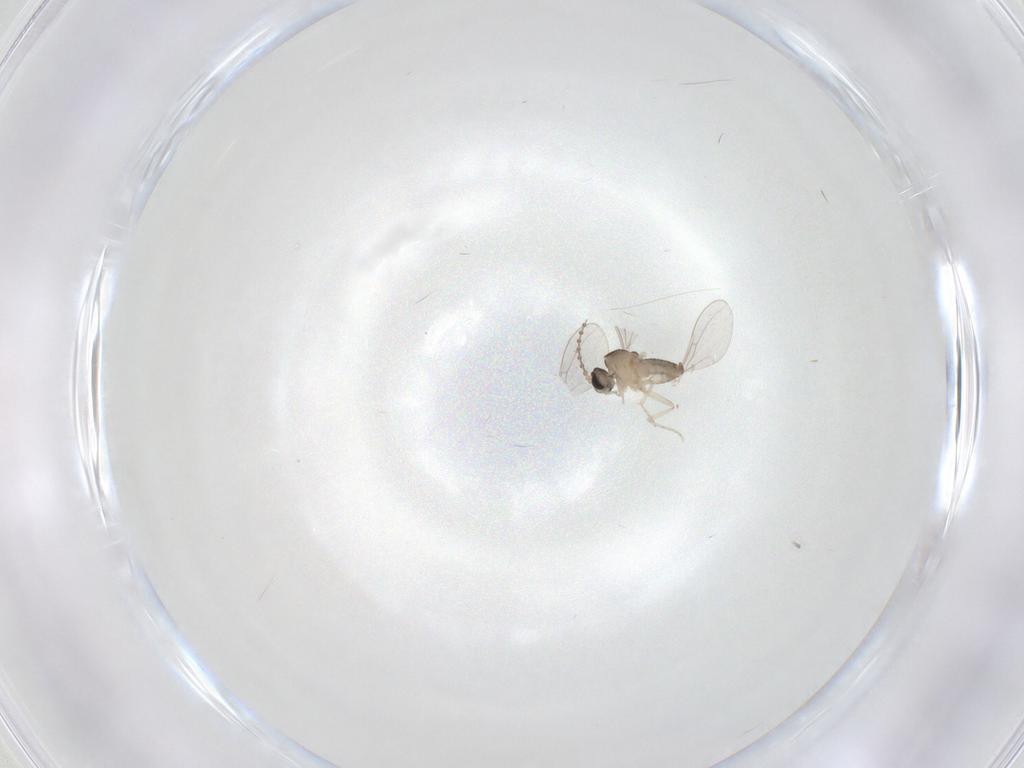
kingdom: Animalia
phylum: Arthropoda
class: Insecta
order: Diptera
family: Cecidomyiidae
